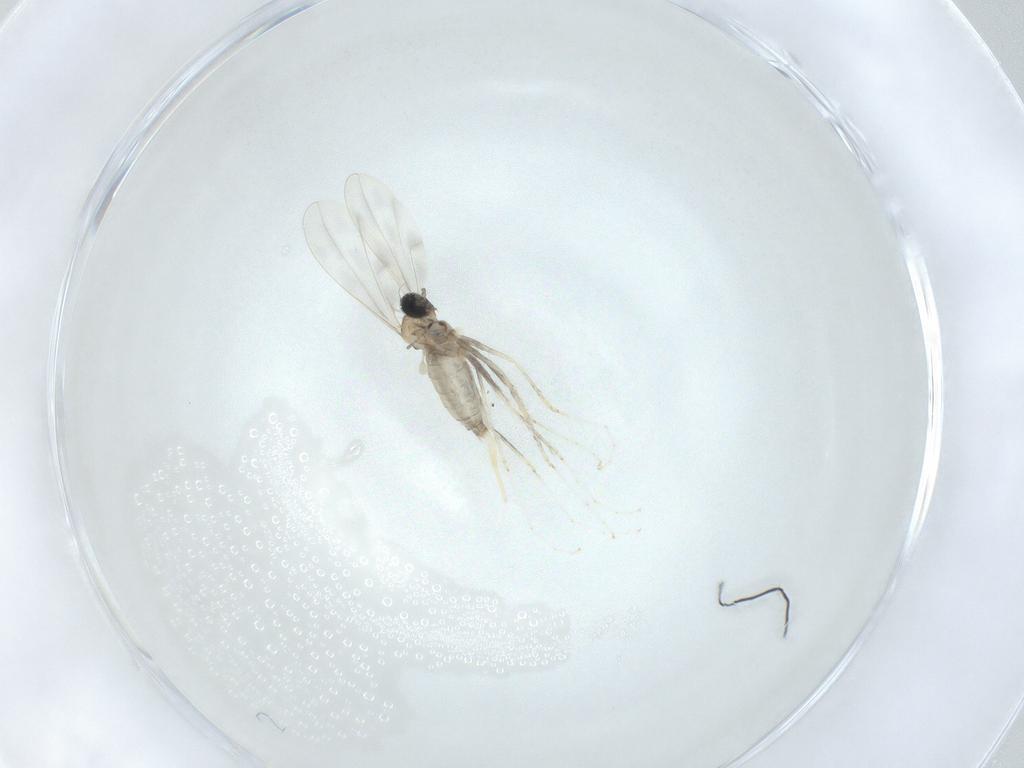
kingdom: Animalia
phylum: Arthropoda
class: Insecta
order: Diptera
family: Cecidomyiidae
